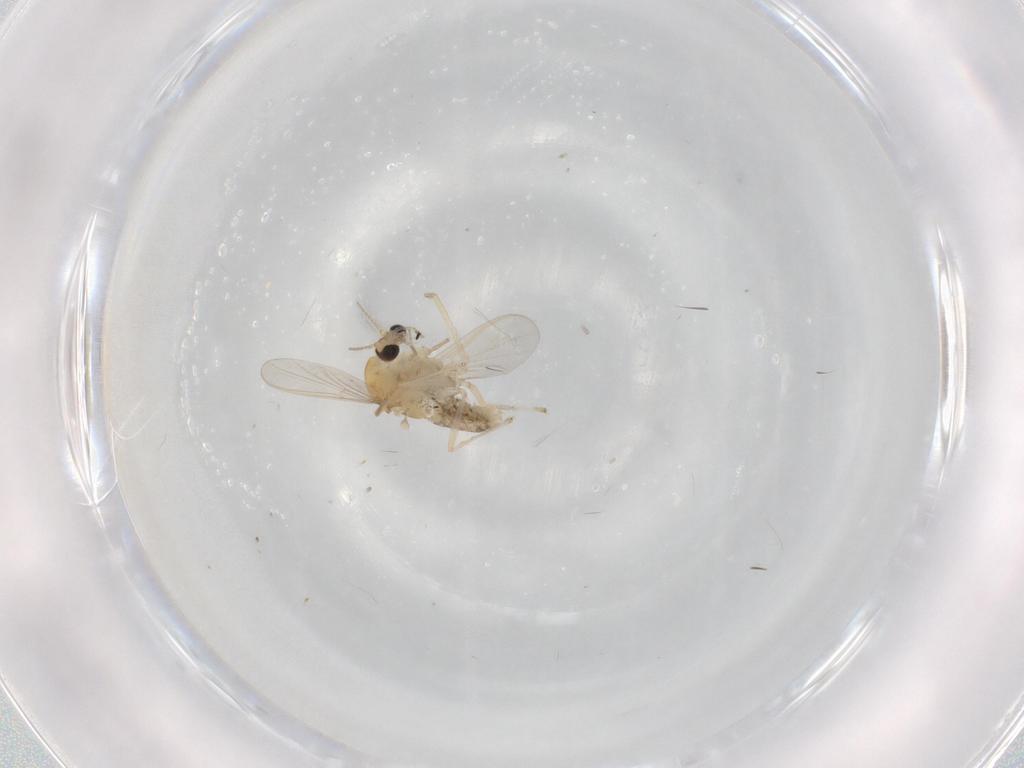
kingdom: Animalia
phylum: Arthropoda
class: Insecta
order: Diptera
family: Chironomidae
